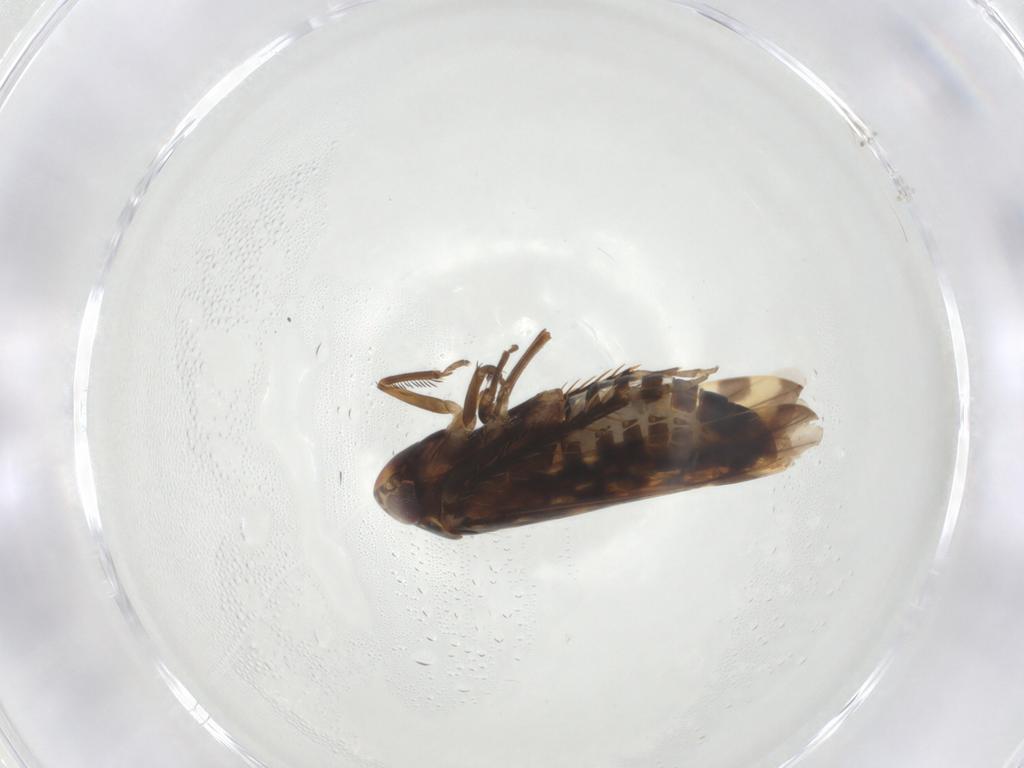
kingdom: Animalia
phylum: Arthropoda
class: Insecta
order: Hemiptera
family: Cicadellidae
